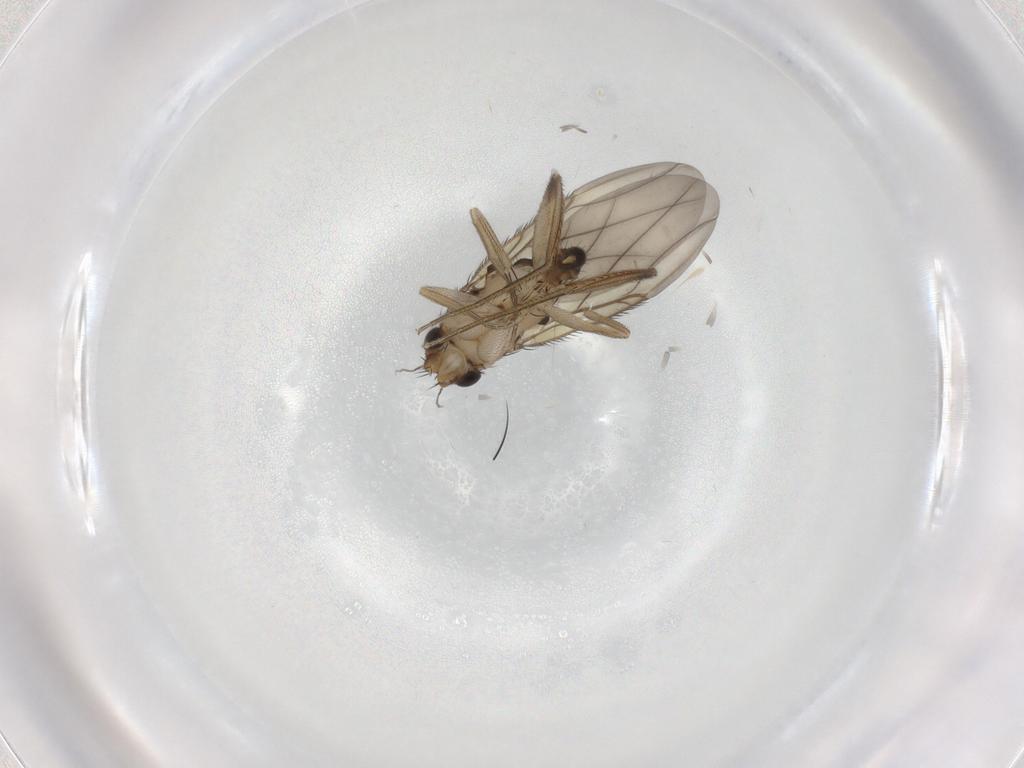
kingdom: Animalia
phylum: Arthropoda
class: Insecta
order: Diptera
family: Phoridae
